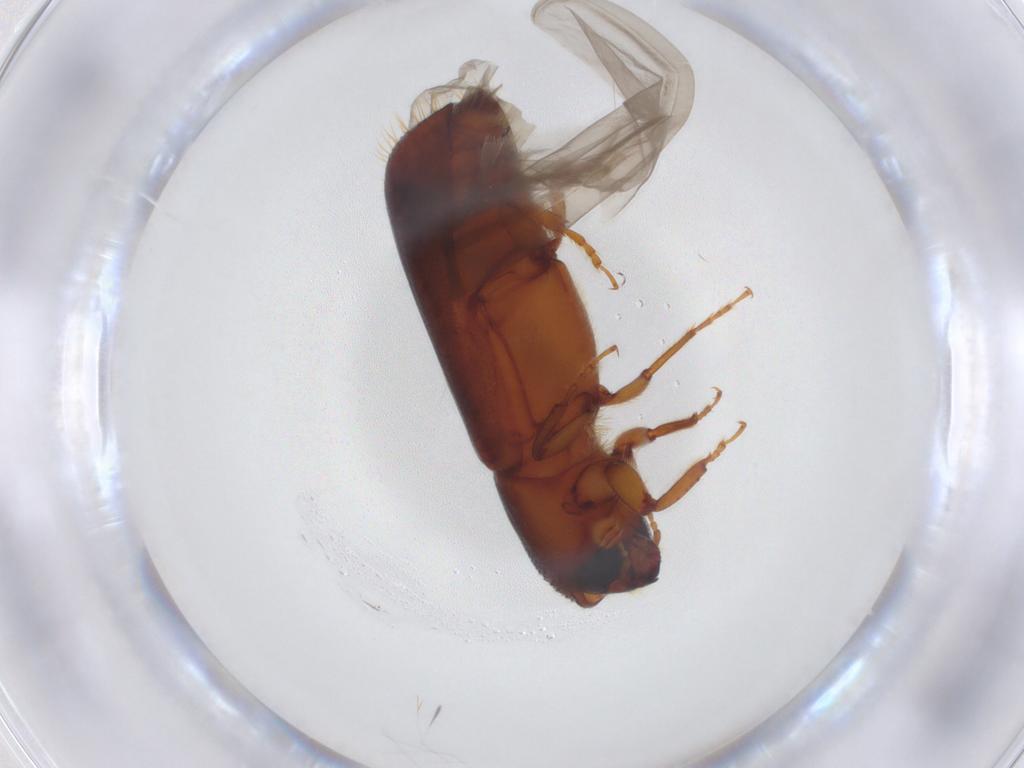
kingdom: Animalia
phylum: Arthropoda
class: Insecta
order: Coleoptera
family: Curculionidae
